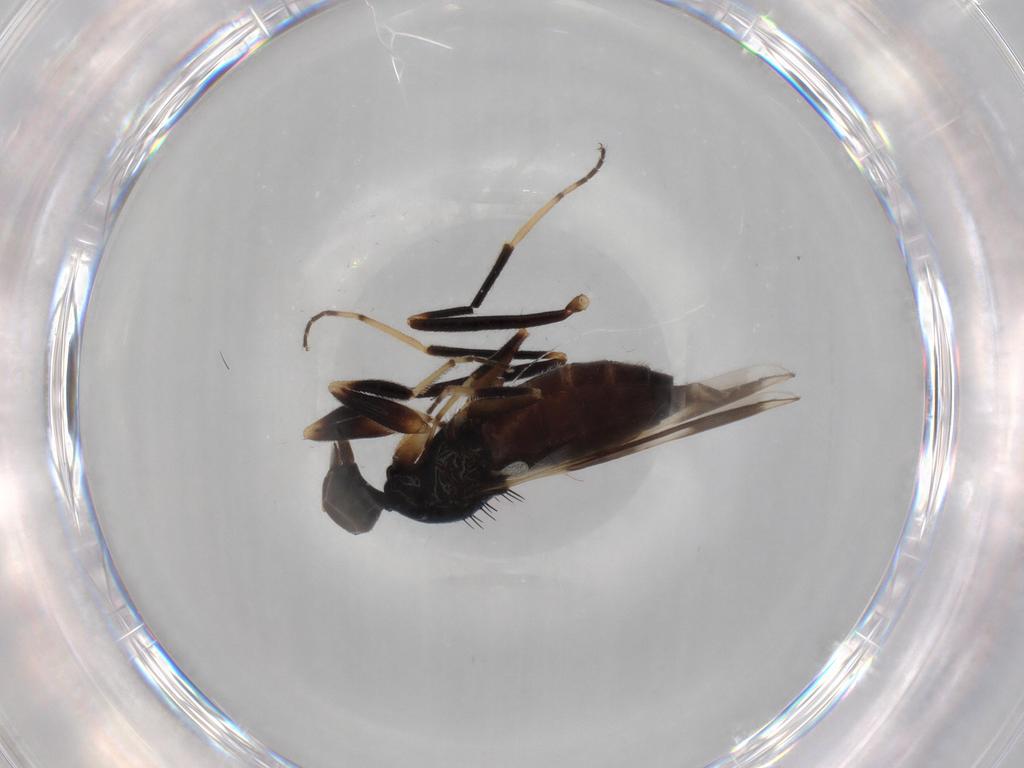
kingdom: Animalia
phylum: Arthropoda
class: Insecta
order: Diptera
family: Hybotidae
